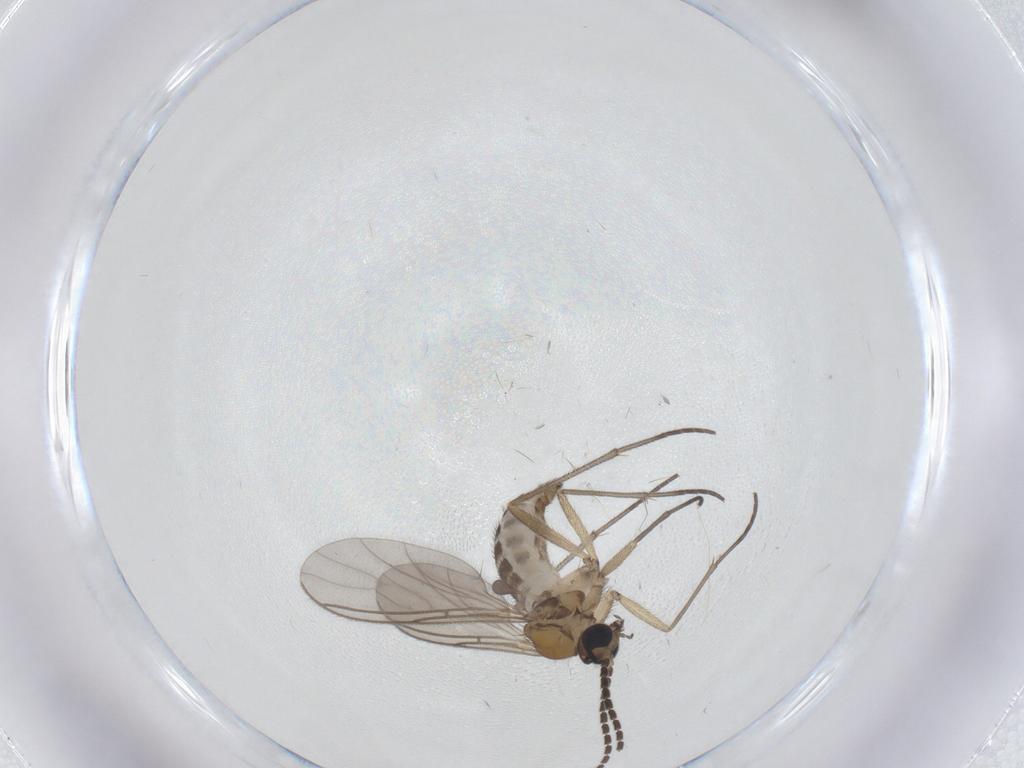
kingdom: Animalia
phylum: Arthropoda
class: Insecta
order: Diptera
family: Sciaridae
